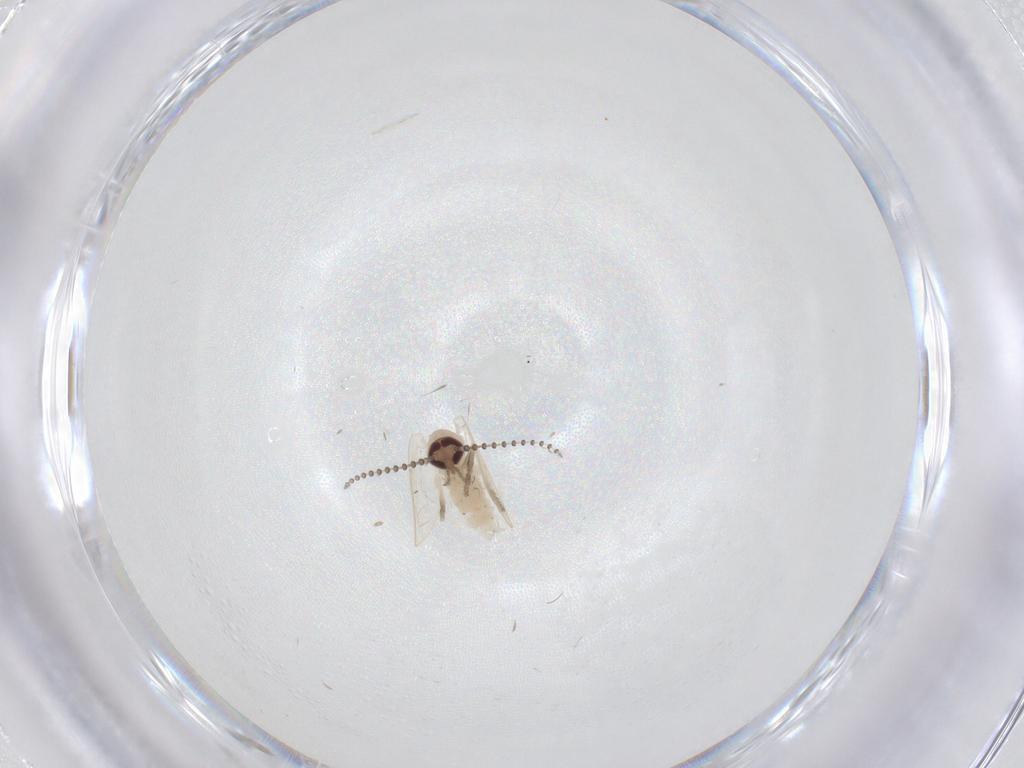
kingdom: Animalia
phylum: Arthropoda
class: Insecta
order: Diptera
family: Psychodidae
